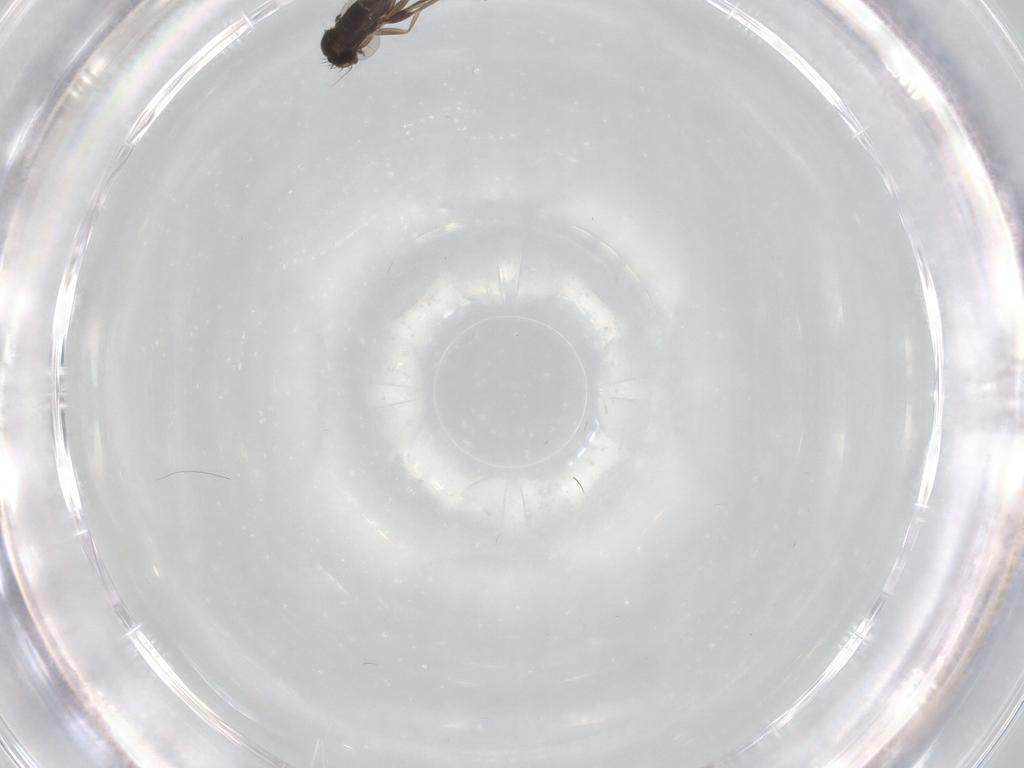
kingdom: Animalia
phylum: Arthropoda
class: Insecta
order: Diptera
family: Phoridae
